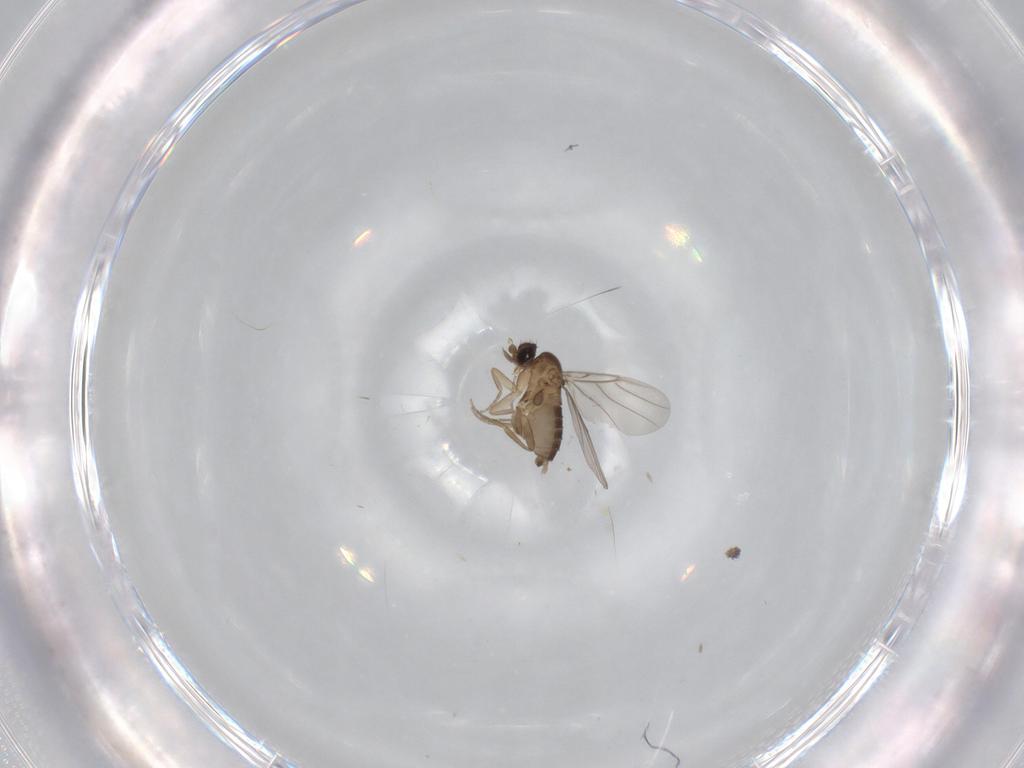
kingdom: Animalia
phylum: Arthropoda
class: Insecta
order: Diptera
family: Phoridae
